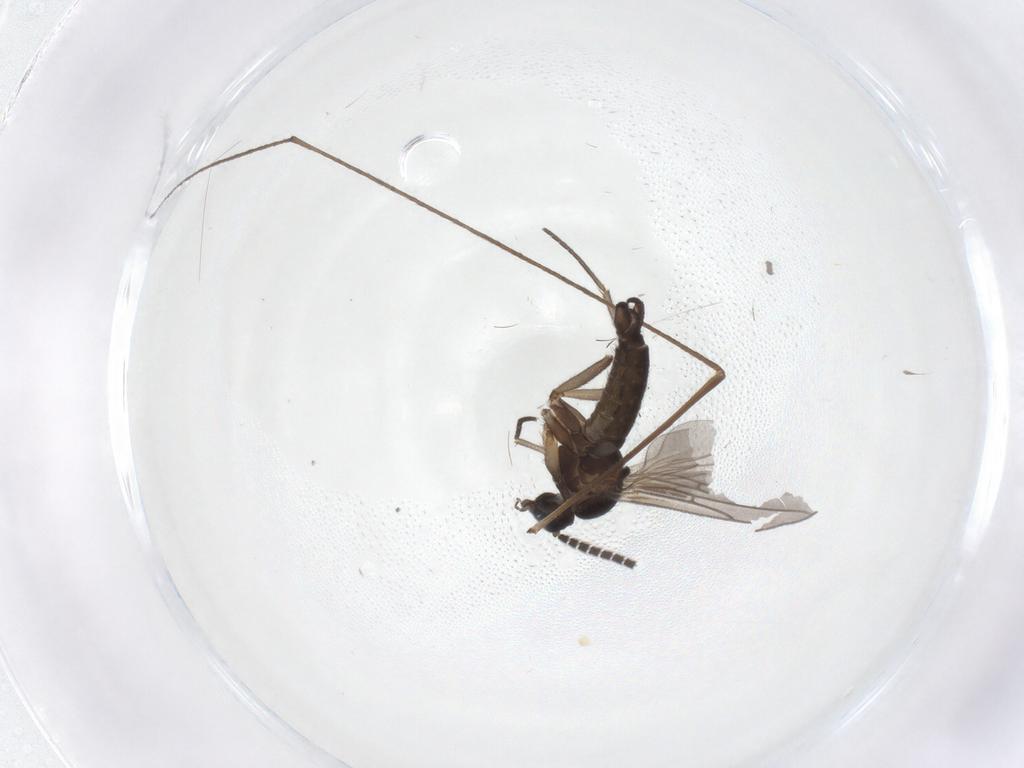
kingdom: Animalia
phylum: Arthropoda
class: Insecta
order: Diptera
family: Sciaridae
